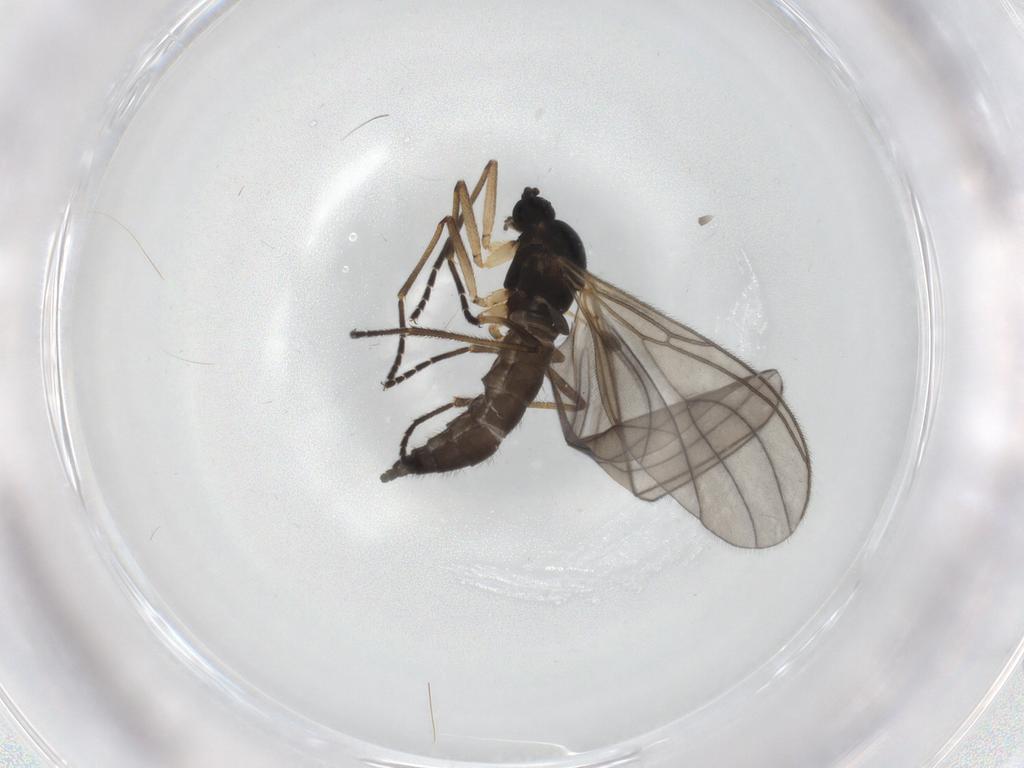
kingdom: Animalia
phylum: Arthropoda
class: Insecta
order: Diptera
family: Sciaridae
